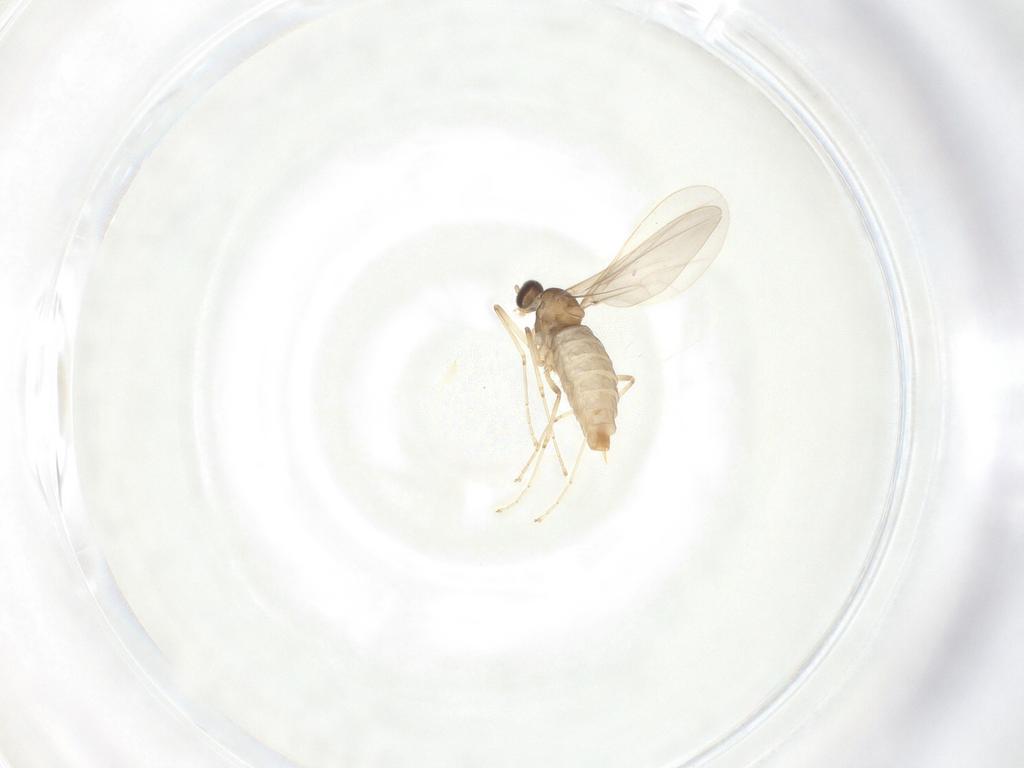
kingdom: Animalia
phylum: Arthropoda
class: Insecta
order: Diptera
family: Cecidomyiidae
